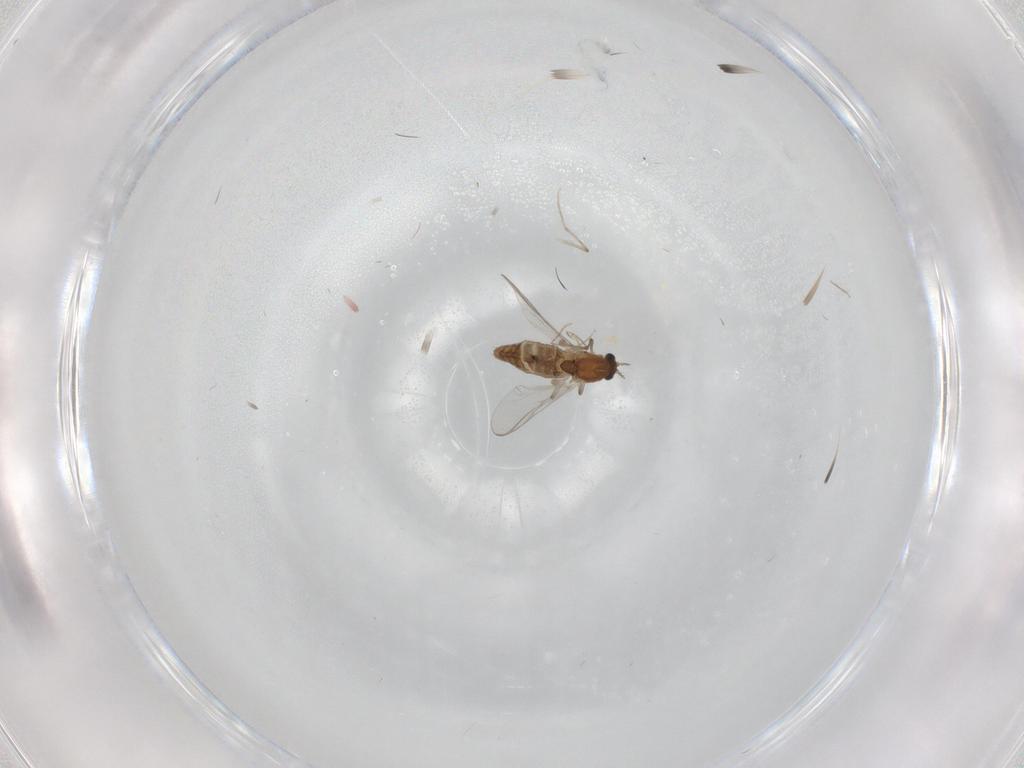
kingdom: Animalia
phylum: Arthropoda
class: Insecta
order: Diptera
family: Chironomidae
